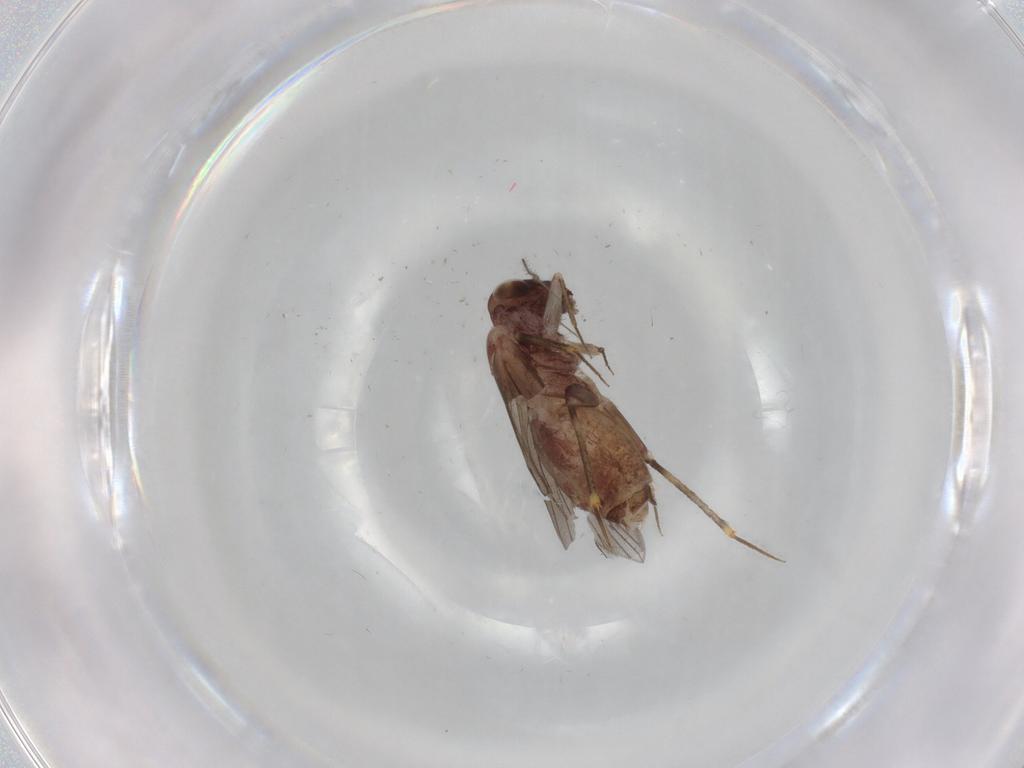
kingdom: Animalia
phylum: Arthropoda
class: Insecta
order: Psocodea
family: Lepidopsocidae
